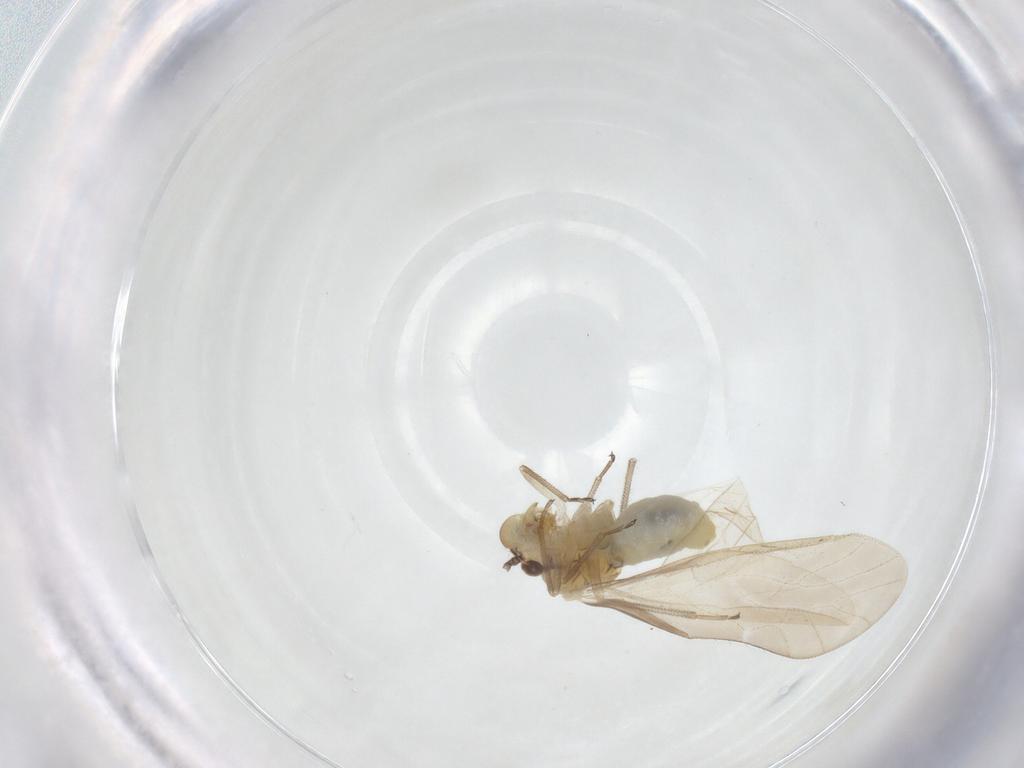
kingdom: Animalia
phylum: Arthropoda
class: Insecta
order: Psocodea
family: Caeciliusidae
